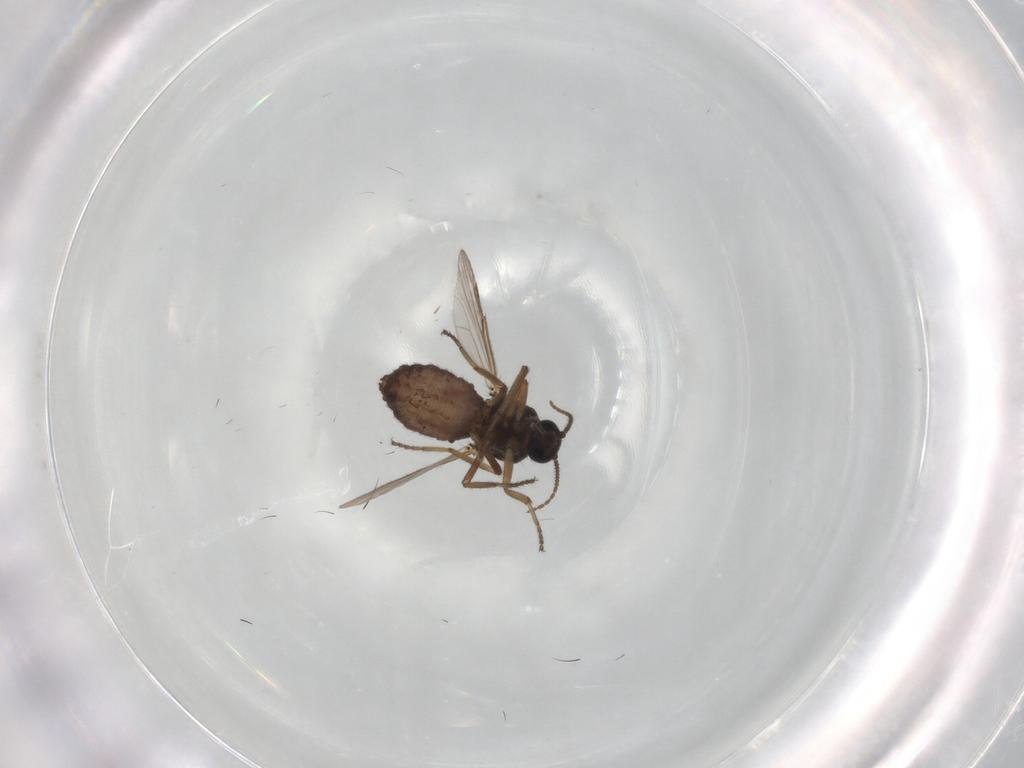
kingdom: Animalia
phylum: Arthropoda
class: Insecta
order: Diptera
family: Ceratopogonidae
